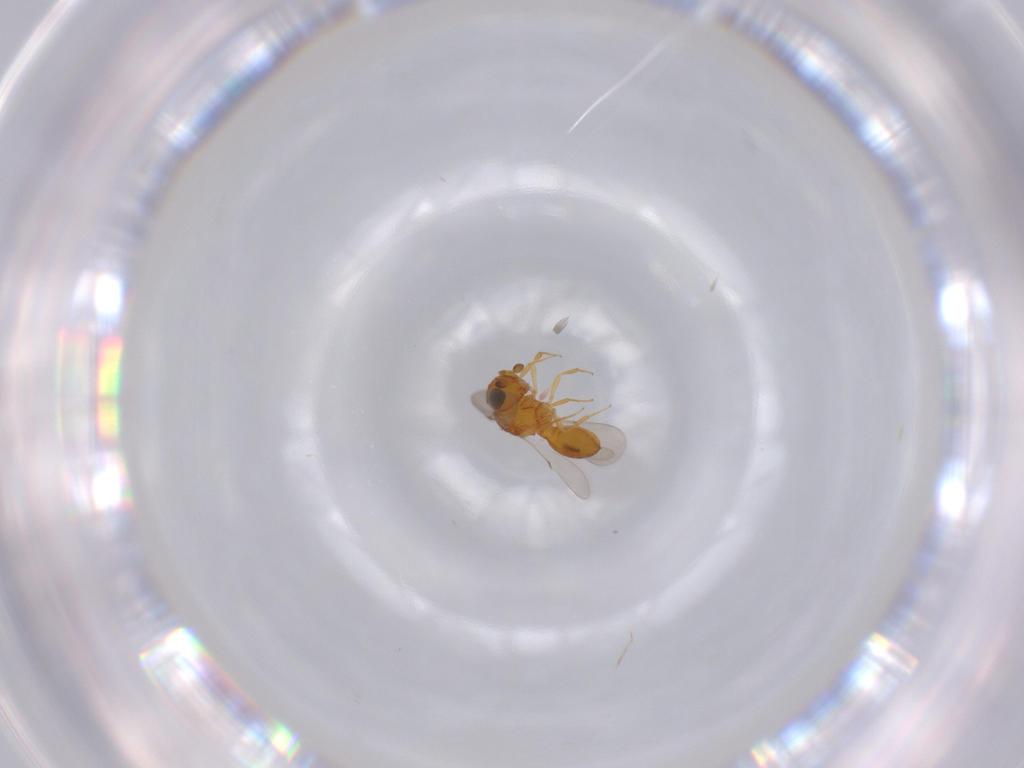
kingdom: Animalia
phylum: Arthropoda
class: Insecta
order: Hymenoptera
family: Scelionidae
